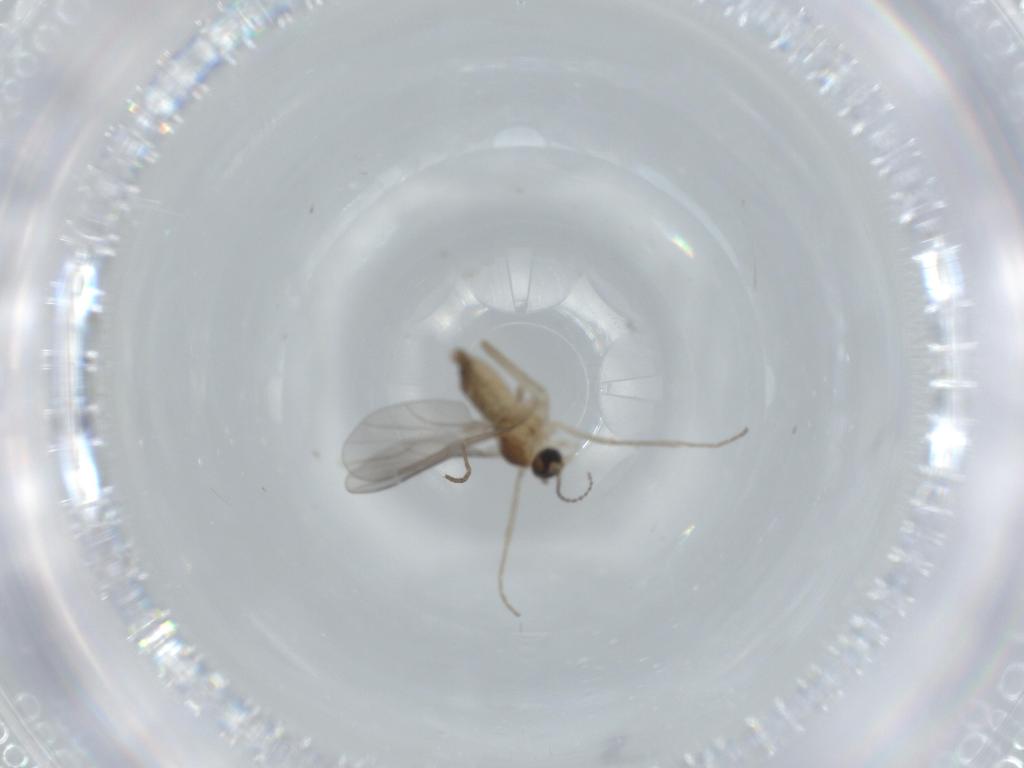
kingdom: Animalia
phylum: Arthropoda
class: Insecta
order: Diptera
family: Cecidomyiidae
